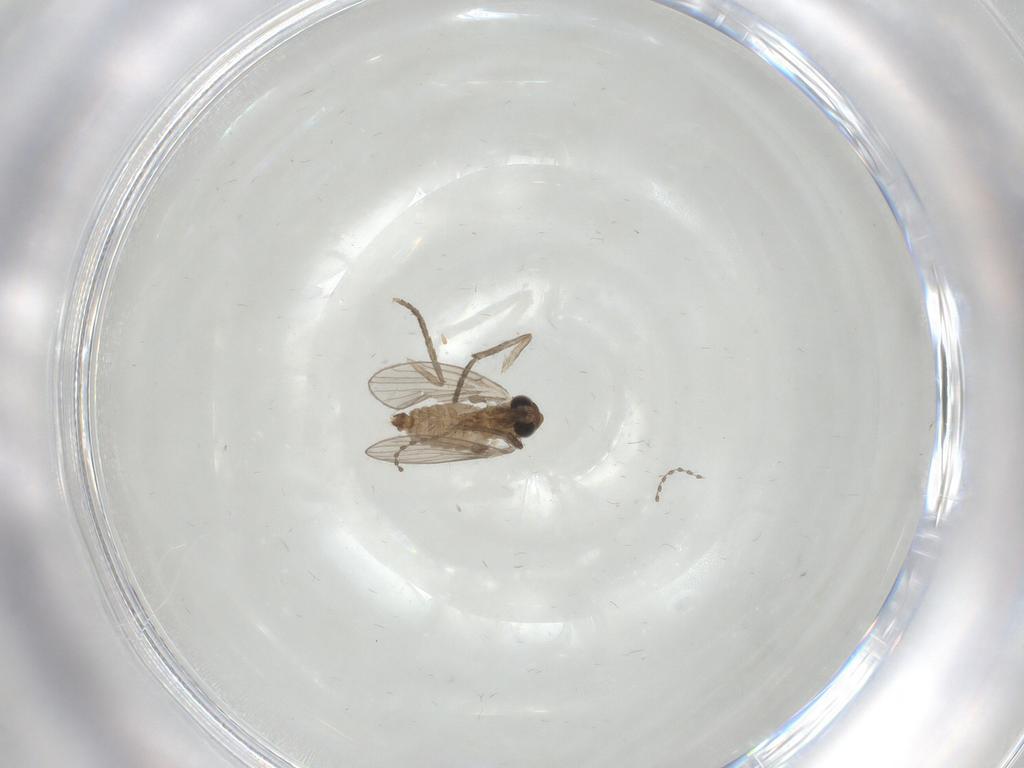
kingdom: Animalia
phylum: Arthropoda
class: Insecta
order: Diptera
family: Psychodidae
